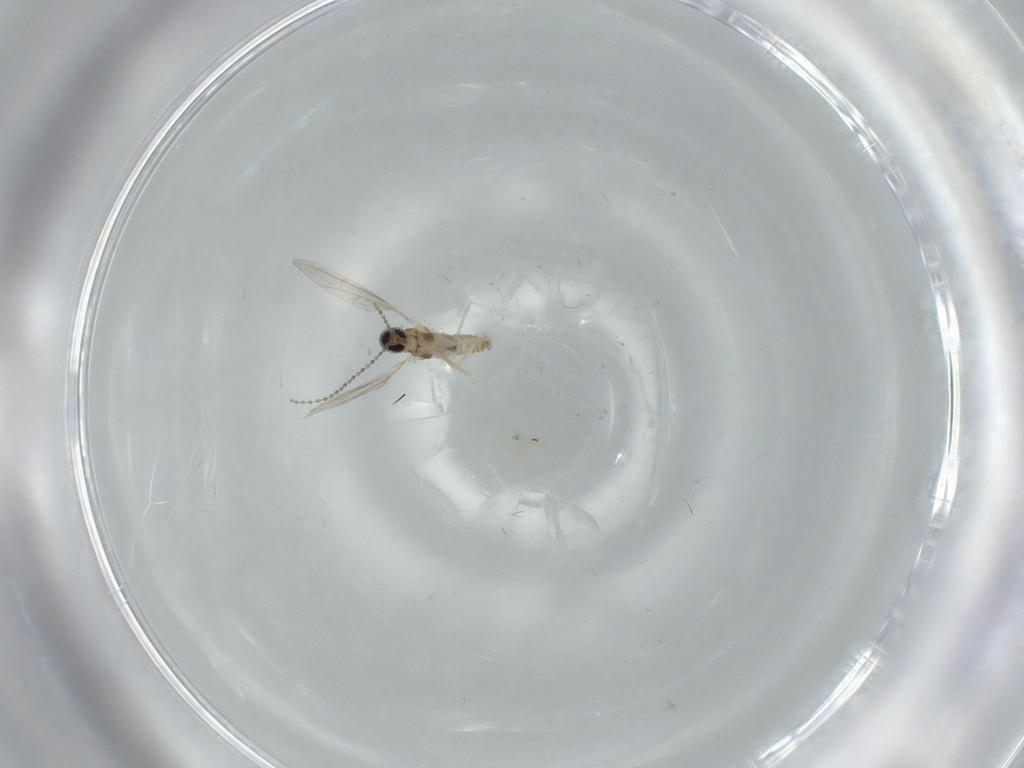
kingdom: Animalia
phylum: Arthropoda
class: Insecta
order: Diptera
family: Cecidomyiidae
